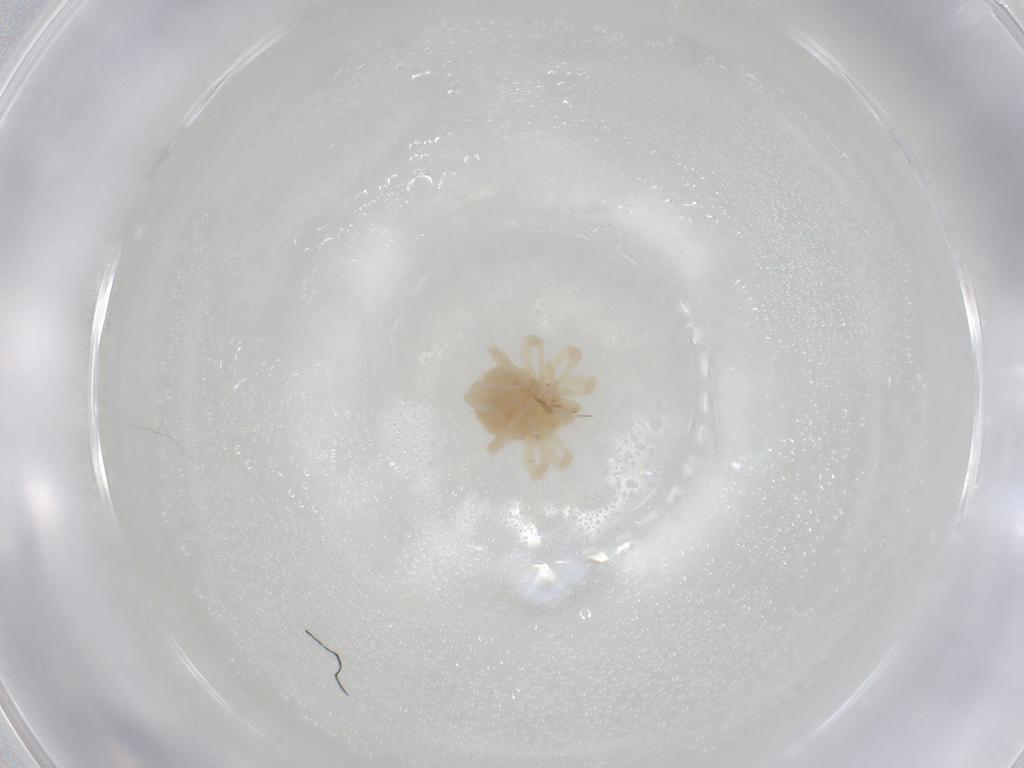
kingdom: Animalia
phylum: Arthropoda
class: Arachnida
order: Trombidiformes
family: Anystidae
